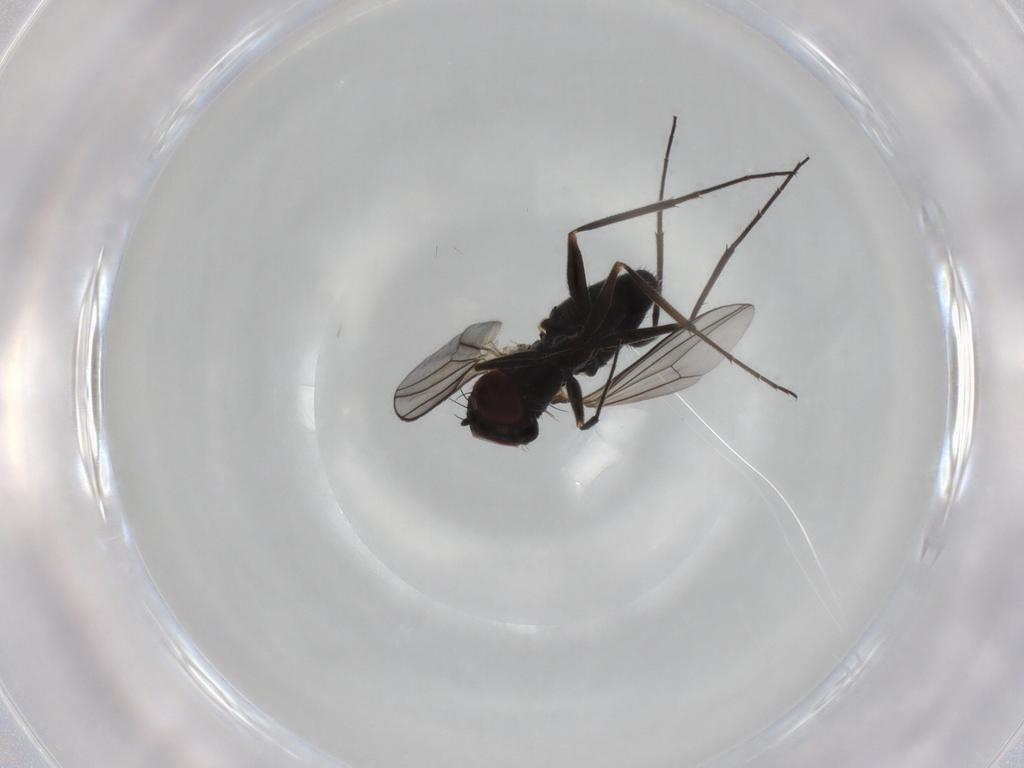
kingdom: Animalia
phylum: Arthropoda
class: Insecta
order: Diptera
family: Dolichopodidae
